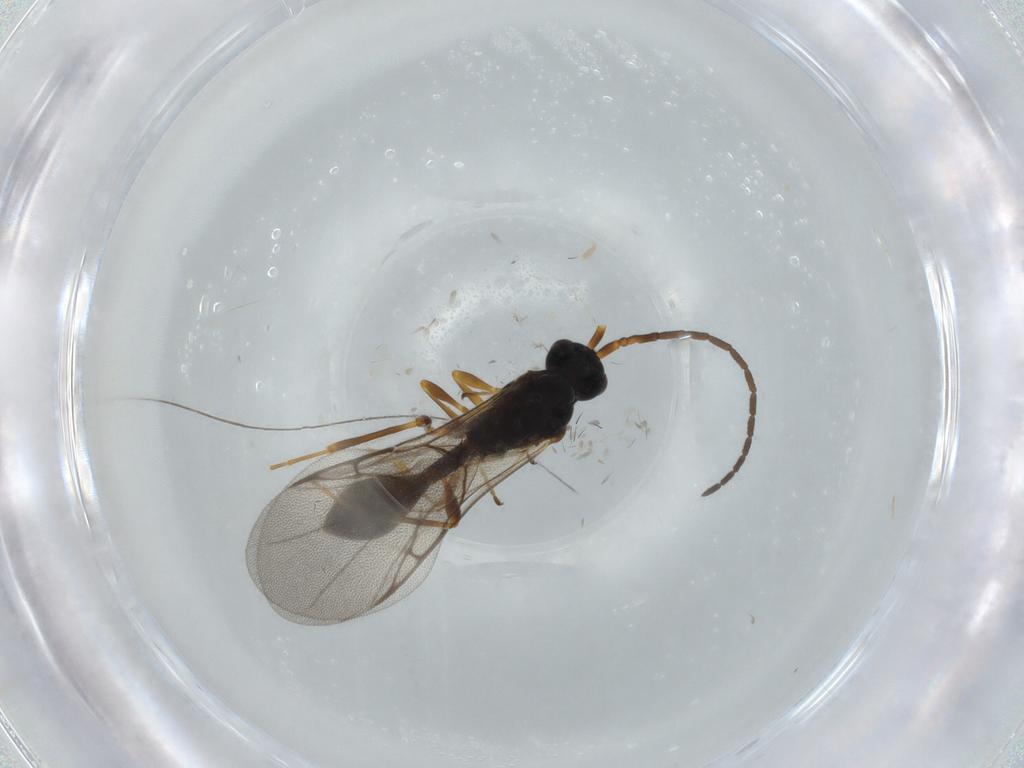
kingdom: Animalia
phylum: Arthropoda
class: Insecta
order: Hymenoptera
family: Diapriidae
